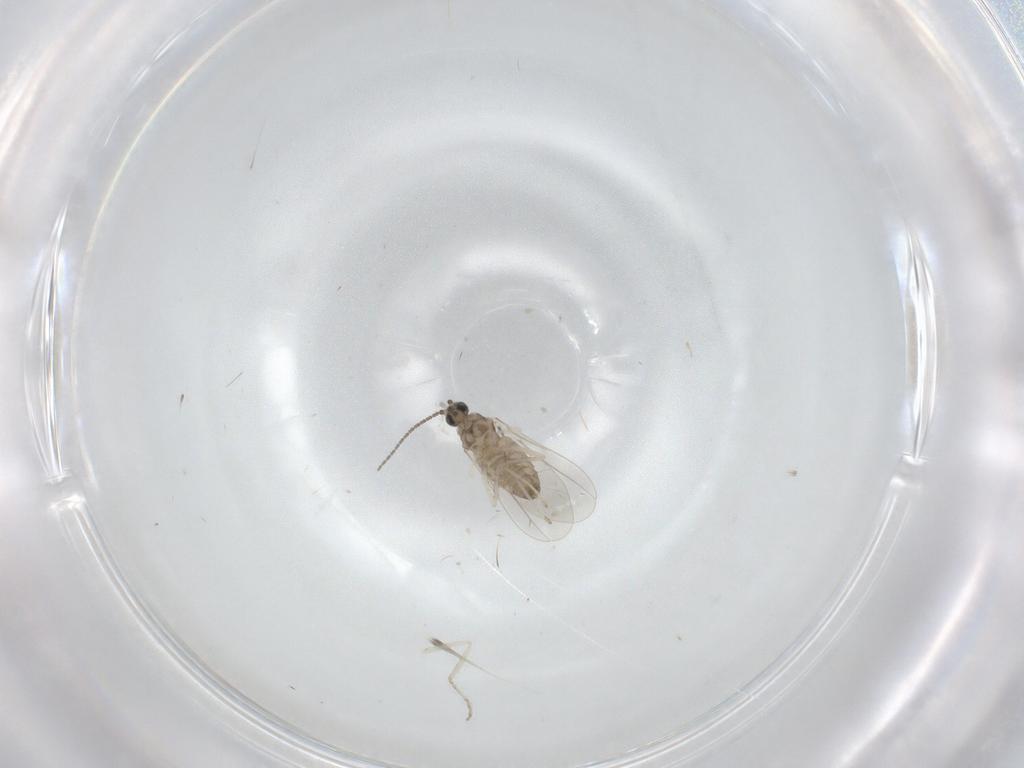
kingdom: Animalia
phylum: Arthropoda
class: Insecta
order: Diptera
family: Cecidomyiidae
